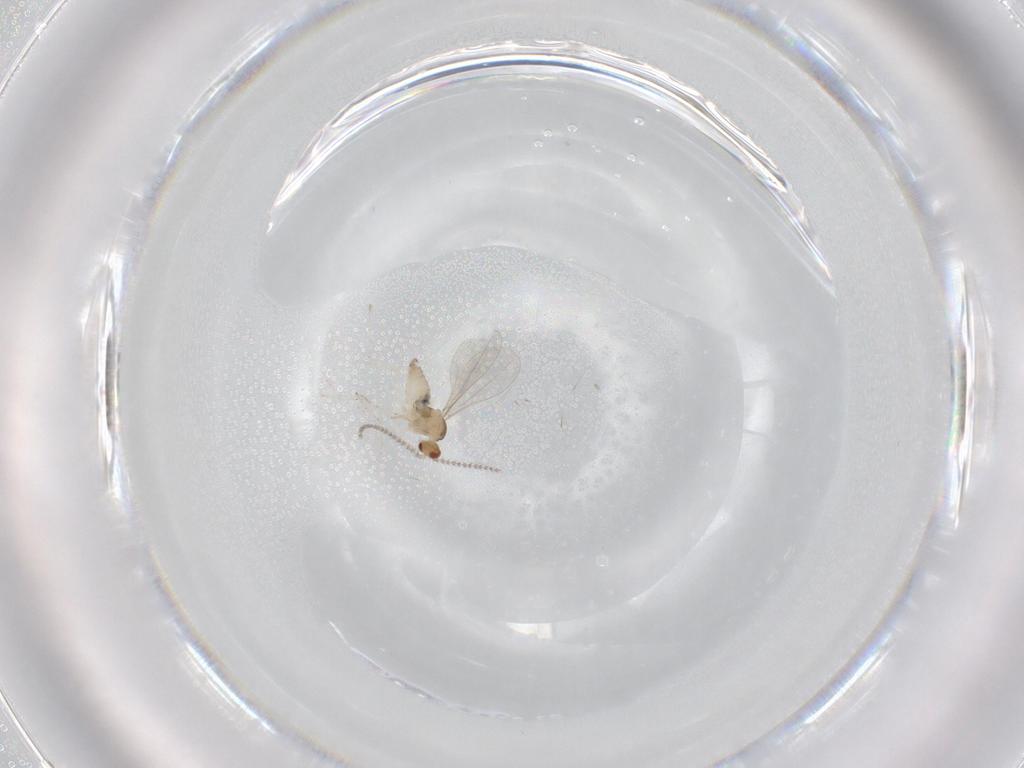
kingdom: Animalia
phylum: Arthropoda
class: Insecta
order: Diptera
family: Cecidomyiidae
